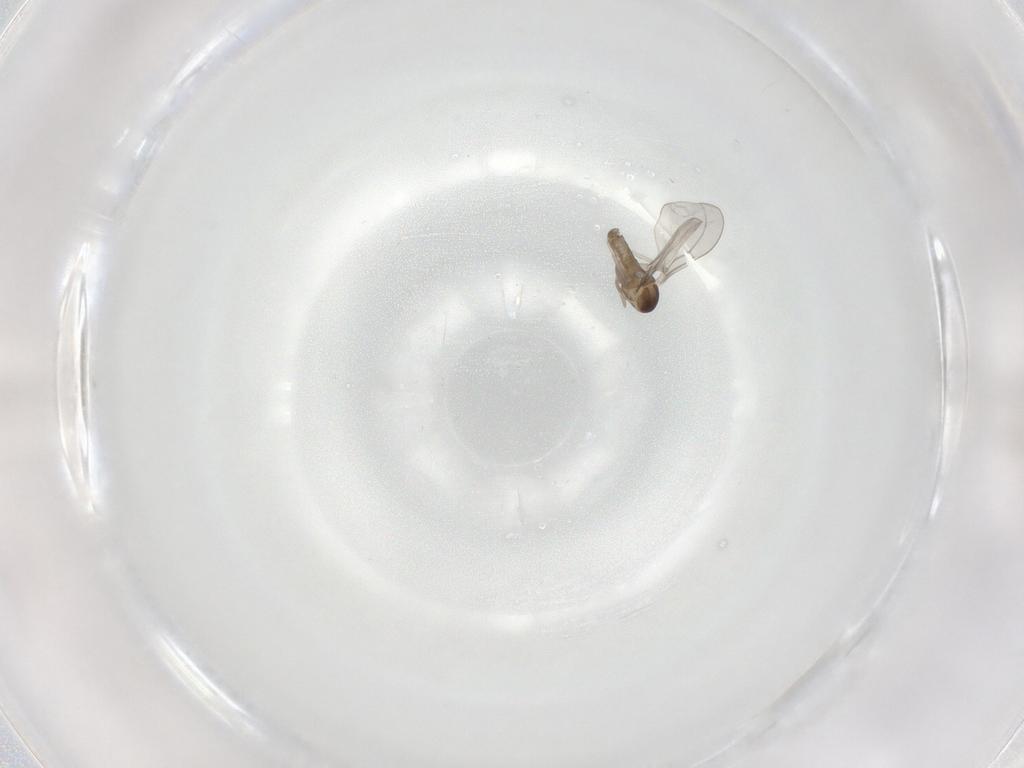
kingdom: Animalia
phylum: Arthropoda
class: Insecta
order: Diptera
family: Cecidomyiidae
